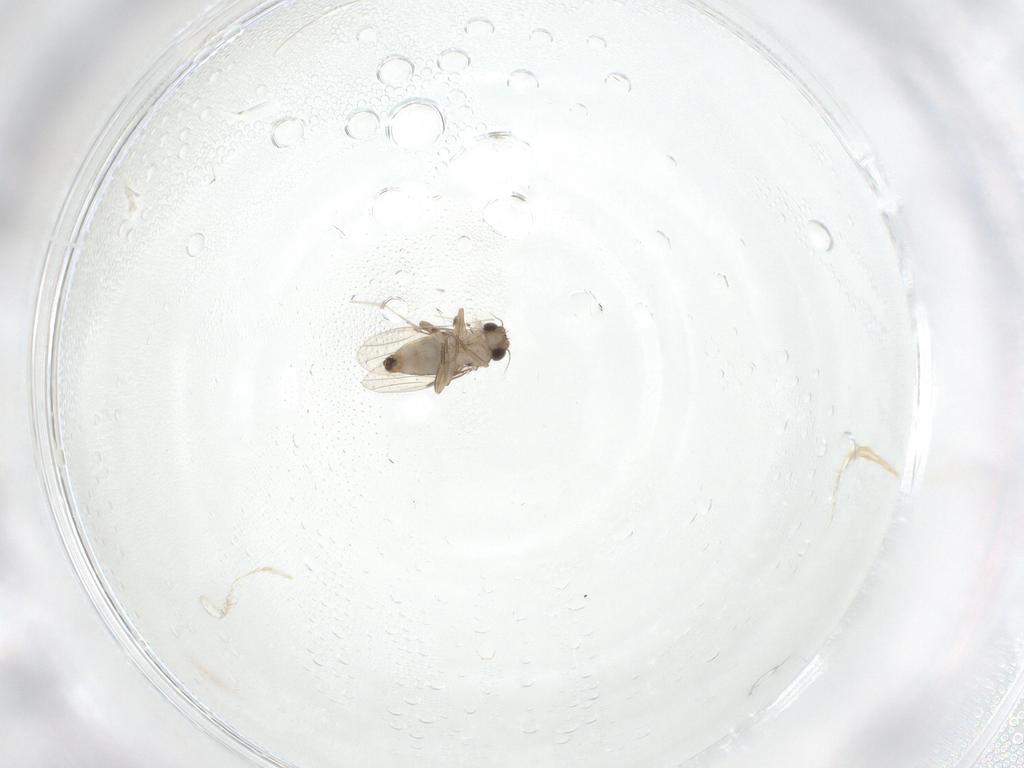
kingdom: Animalia
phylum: Arthropoda
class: Insecta
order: Diptera
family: Phoridae
